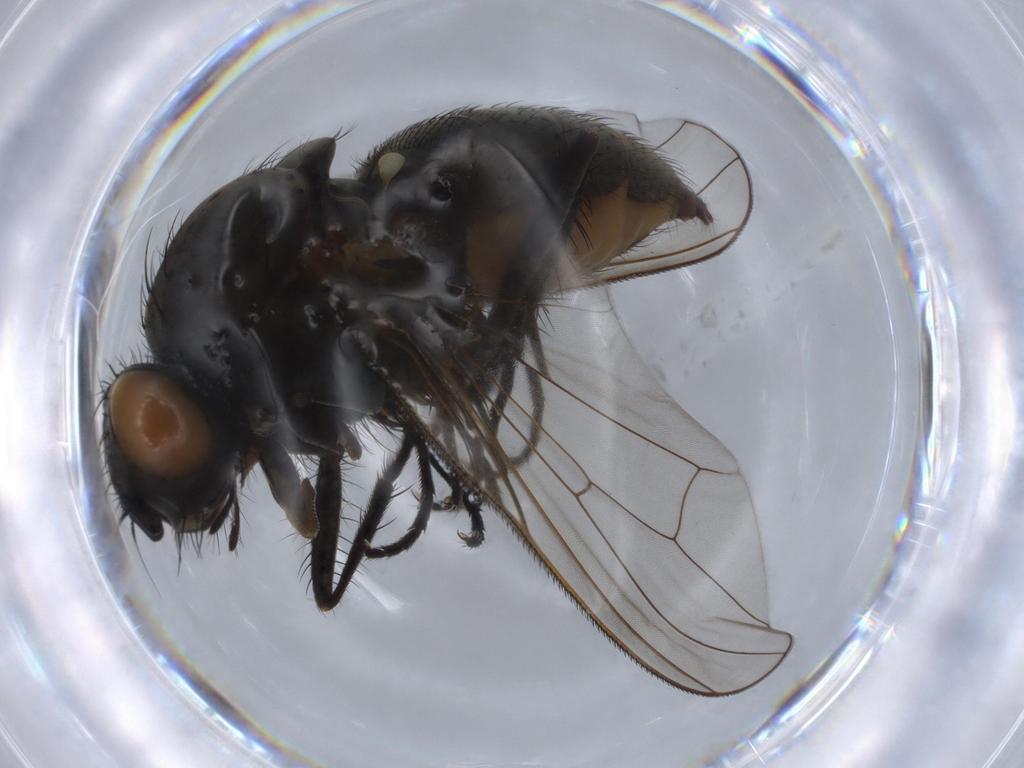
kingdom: Animalia
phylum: Arthropoda
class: Insecta
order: Diptera
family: Anthomyiidae
